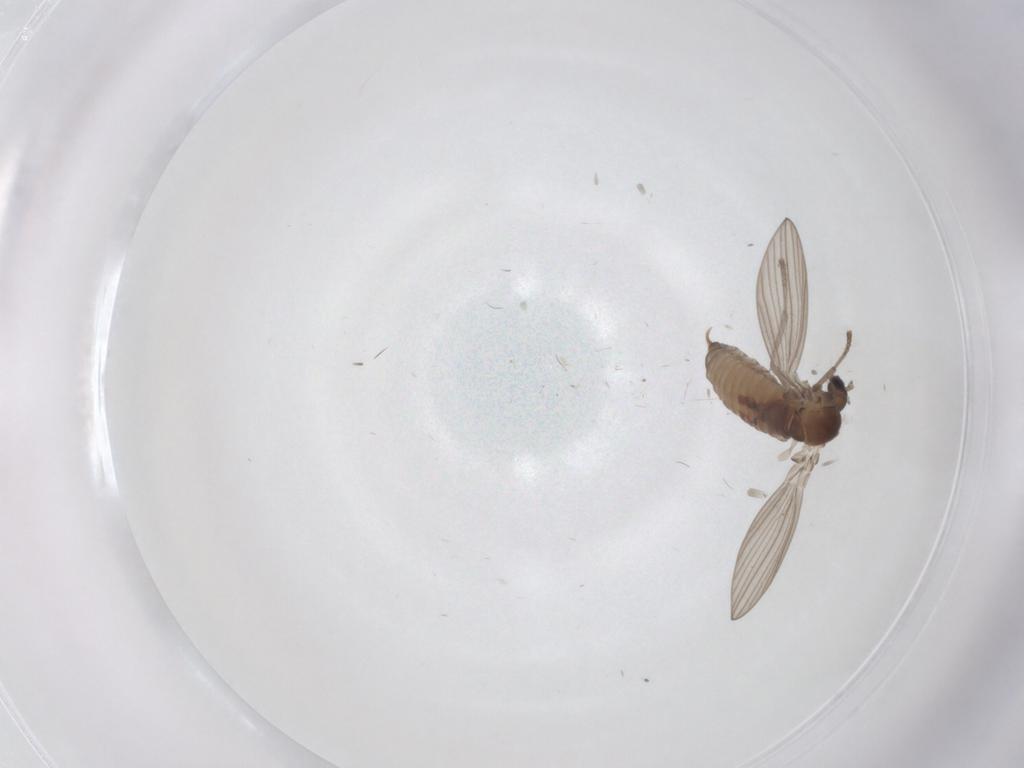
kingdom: Animalia
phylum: Arthropoda
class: Insecta
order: Diptera
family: Psychodidae
